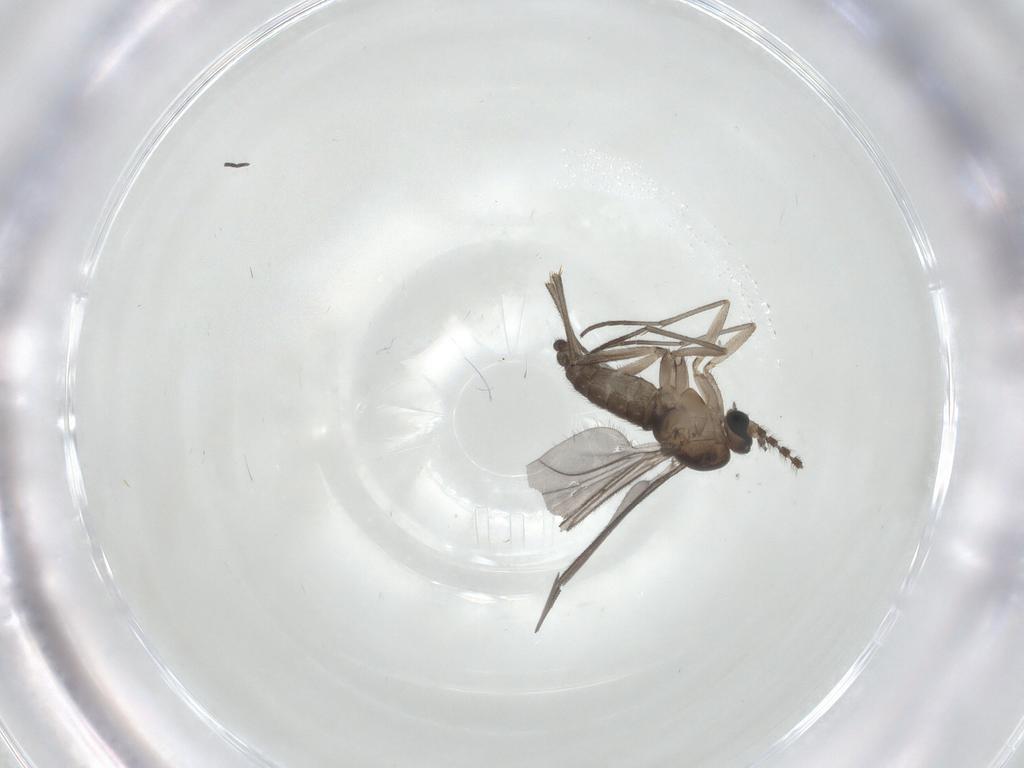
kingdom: Animalia
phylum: Arthropoda
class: Insecta
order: Diptera
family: Sciaridae
